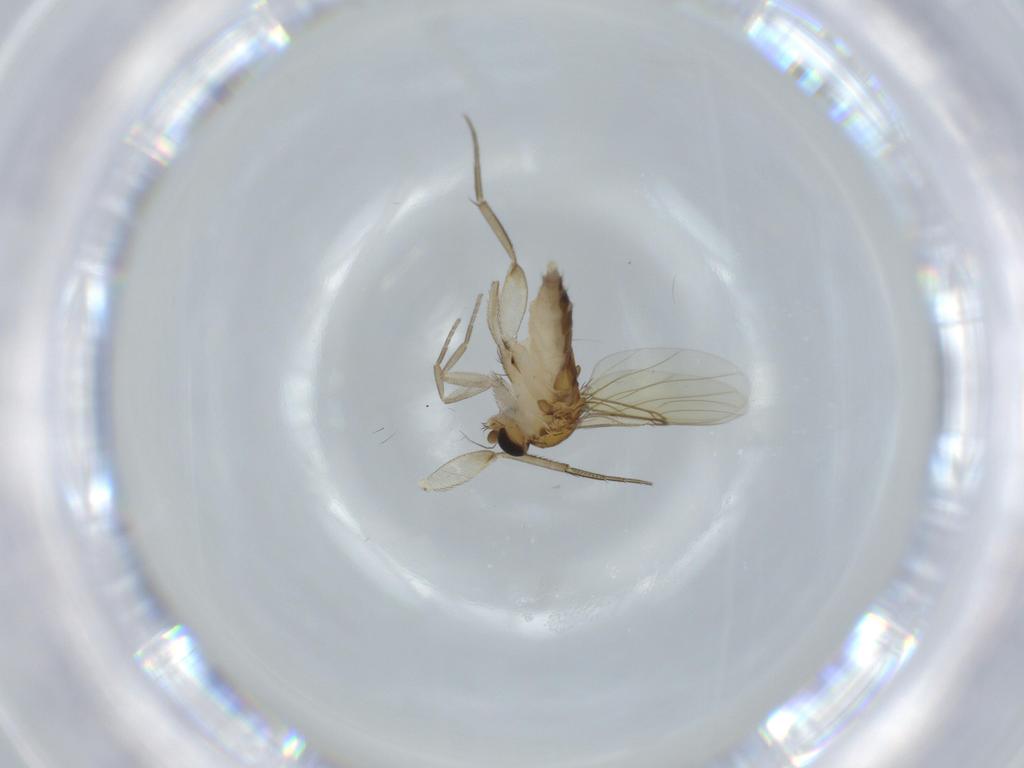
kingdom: Animalia
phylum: Arthropoda
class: Insecta
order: Diptera
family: Phoridae
